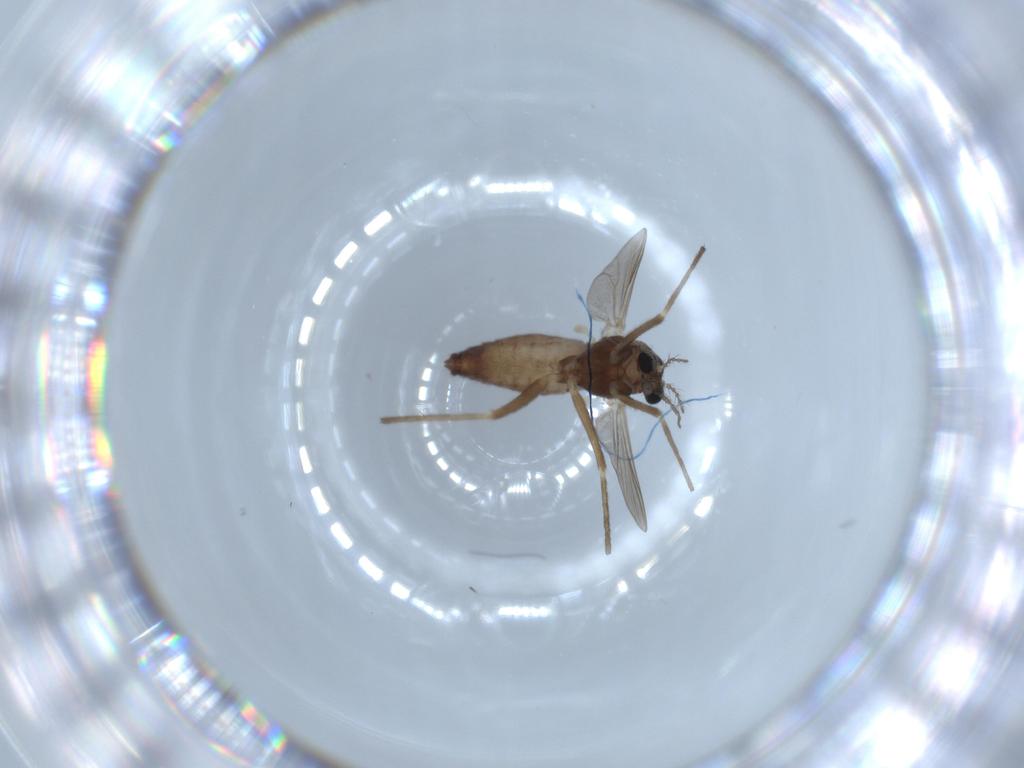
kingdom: Animalia
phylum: Arthropoda
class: Insecta
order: Diptera
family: Chironomidae
